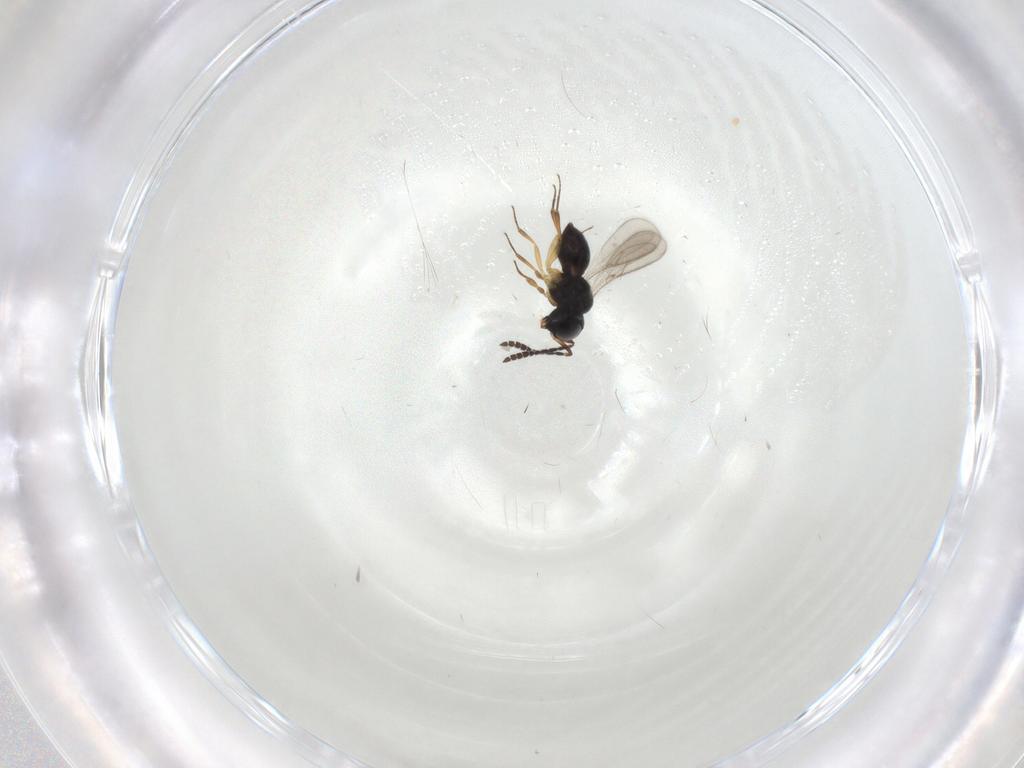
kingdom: Animalia
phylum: Arthropoda
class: Insecta
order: Hymenoptera
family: Scelionidae
